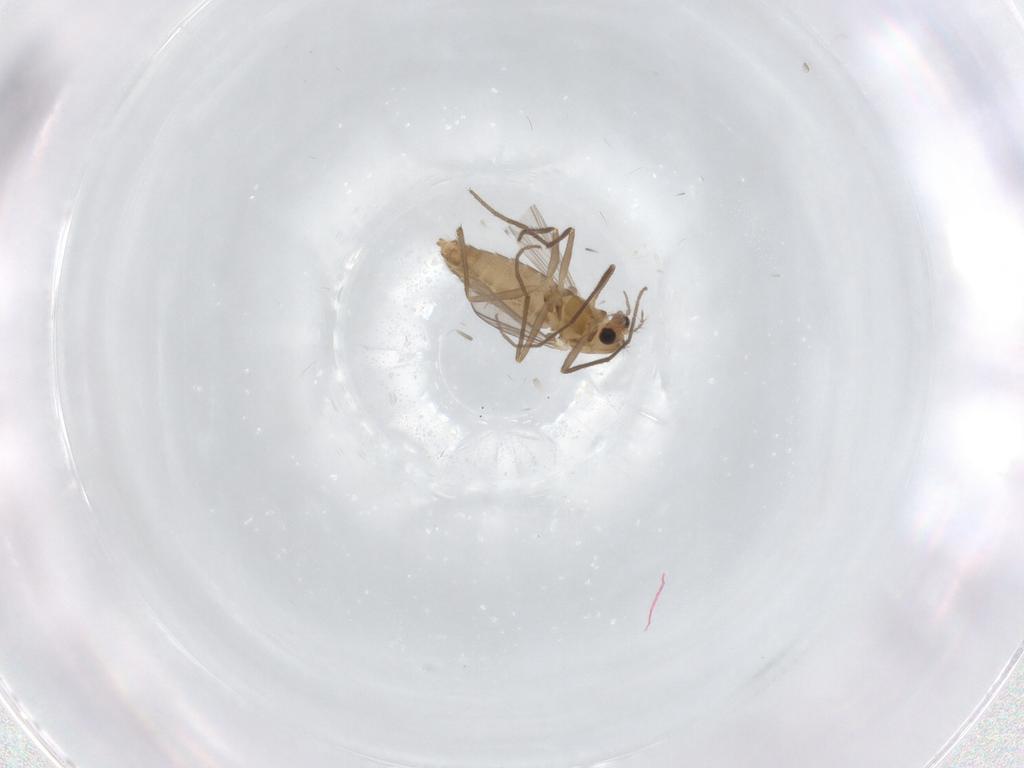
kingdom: Animalia
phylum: Arthropoda
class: Insecta
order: Diptera
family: Chironomidae
